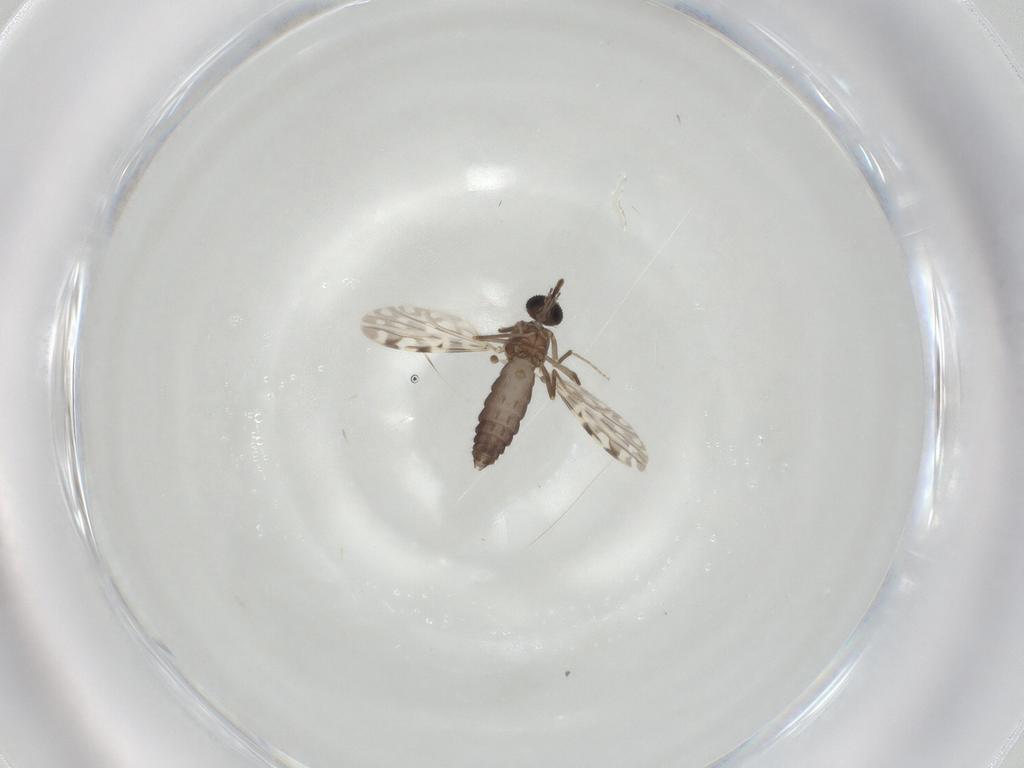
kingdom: Animalia
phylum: Arthropoda
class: Insecta
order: Diptera
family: Ceratopogonidae
